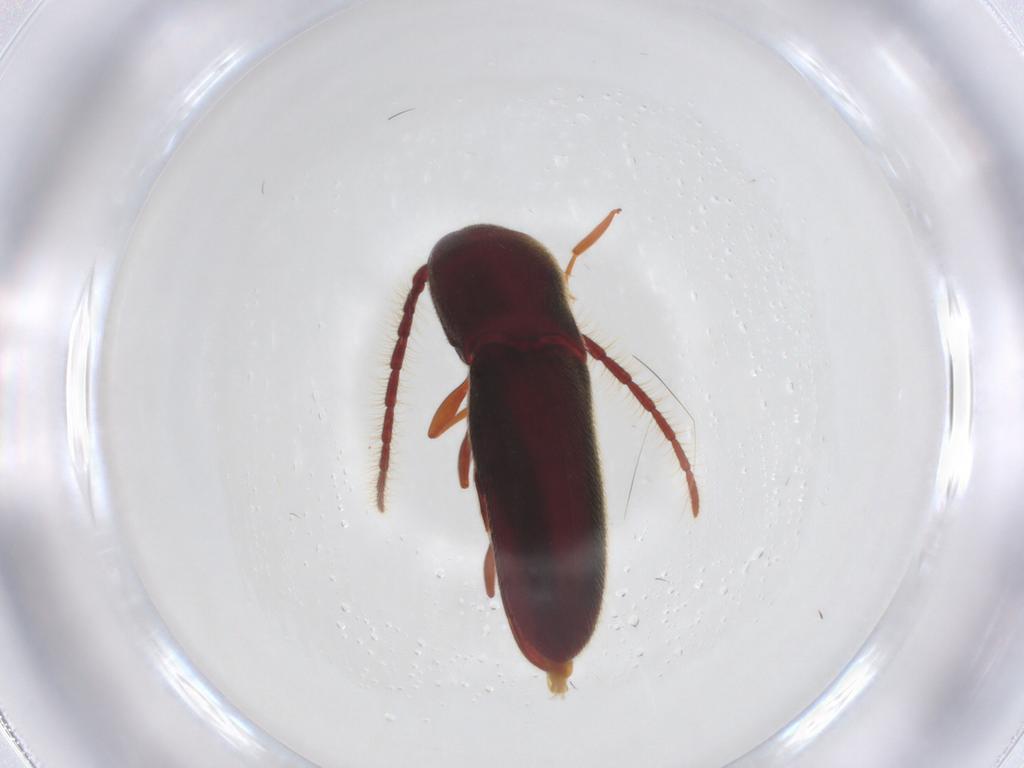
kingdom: Animalia
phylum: Arthropoda
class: Insecta
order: Coleoptera
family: Eucnemidae
